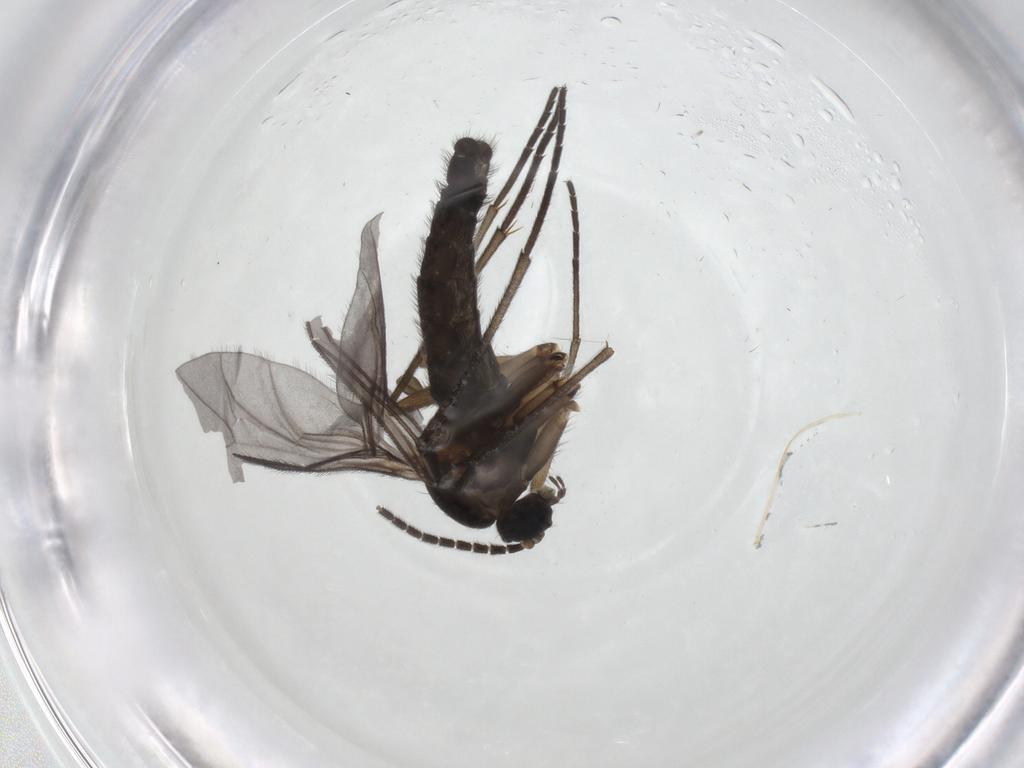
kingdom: Animalia
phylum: Arthropoda
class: Insecta
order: Diptera
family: Sciaridae
